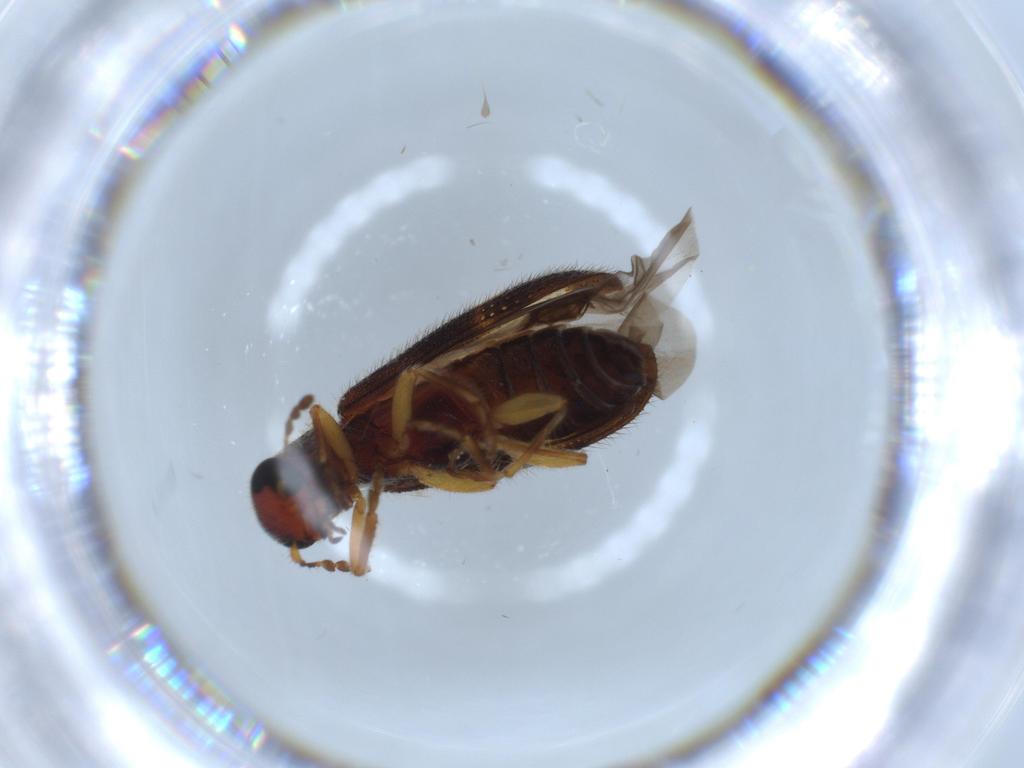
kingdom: Animalia
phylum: Arthropoda
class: Insecta
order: Coleoptera
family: Cleridae
